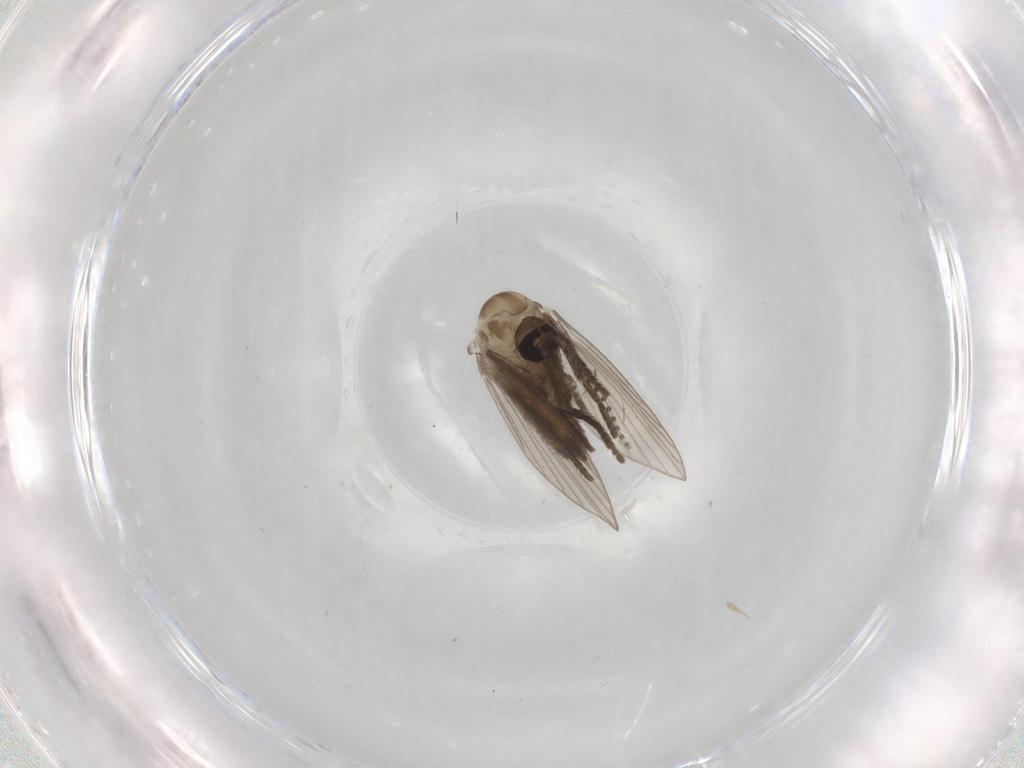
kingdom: Animalia
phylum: Arthropoda
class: Insecta
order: Diptera
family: Psychodidae
